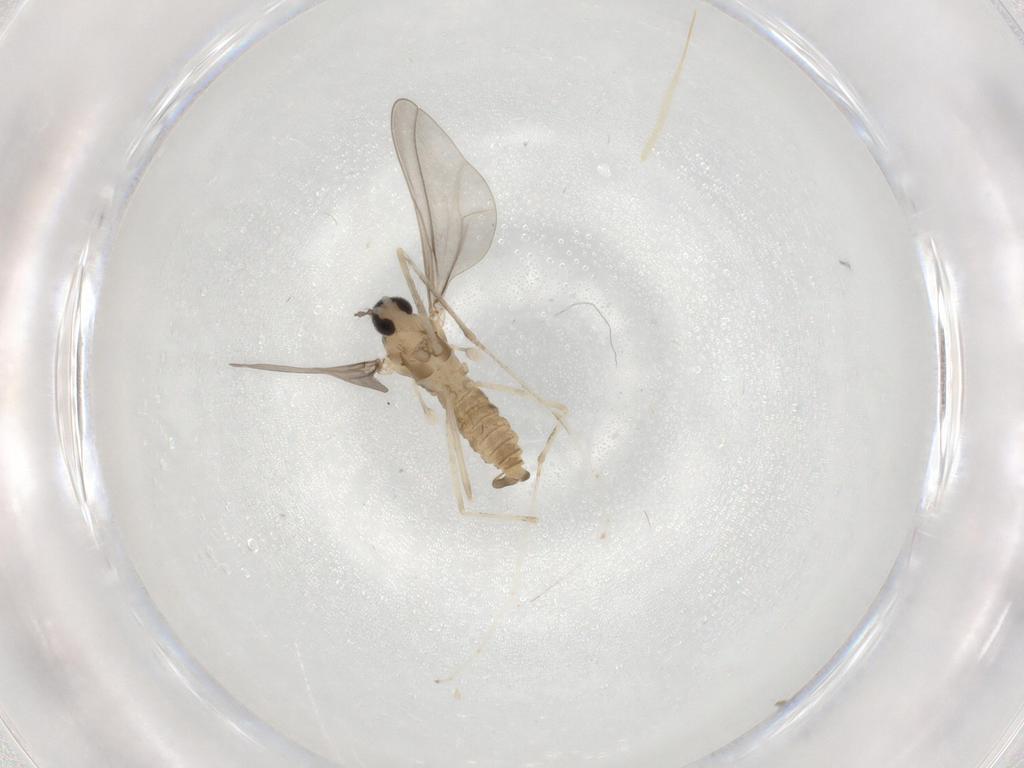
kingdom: Animalia
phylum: Arthropoda
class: Insecta
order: Diptera
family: Cecidomyiidae
